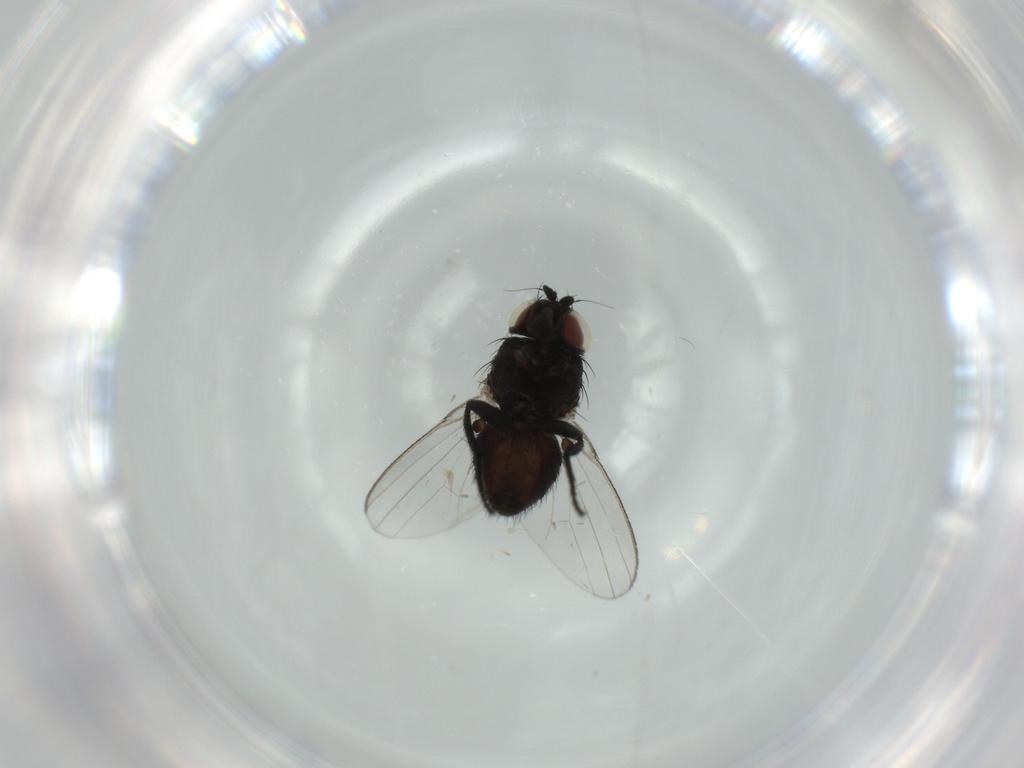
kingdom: Animalia
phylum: Arthropoda
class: Insecta
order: Diptera
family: Milichiidae
